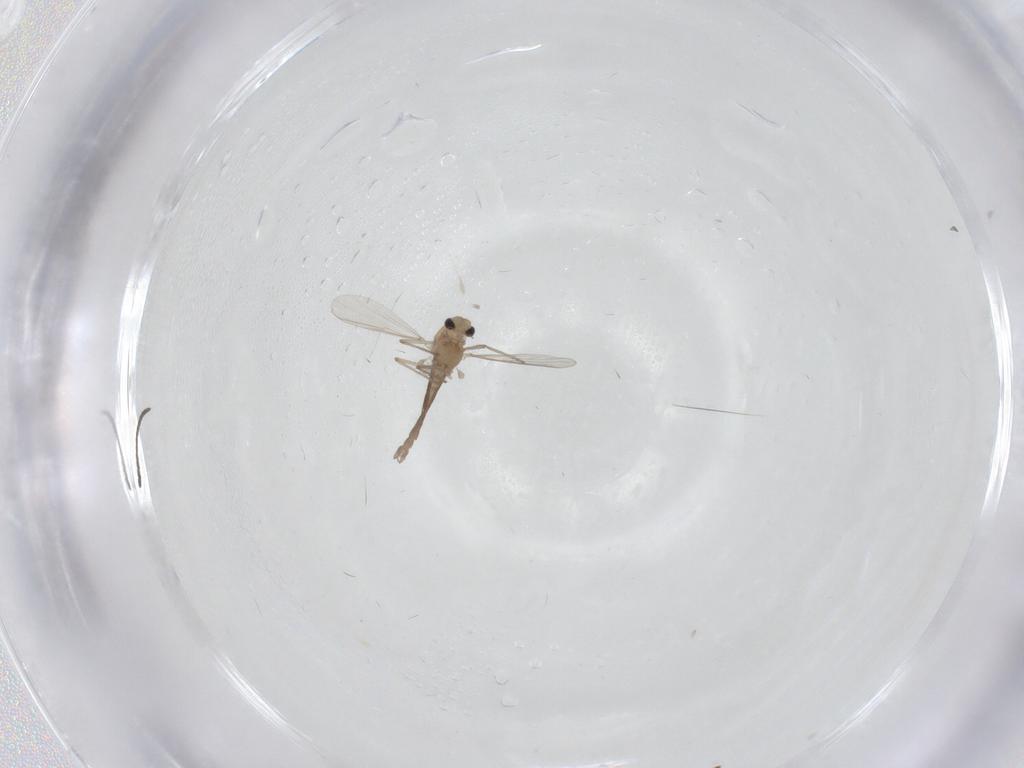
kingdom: Animalia
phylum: Arthropoda
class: Insecta
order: Diptera
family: Chironomidae
